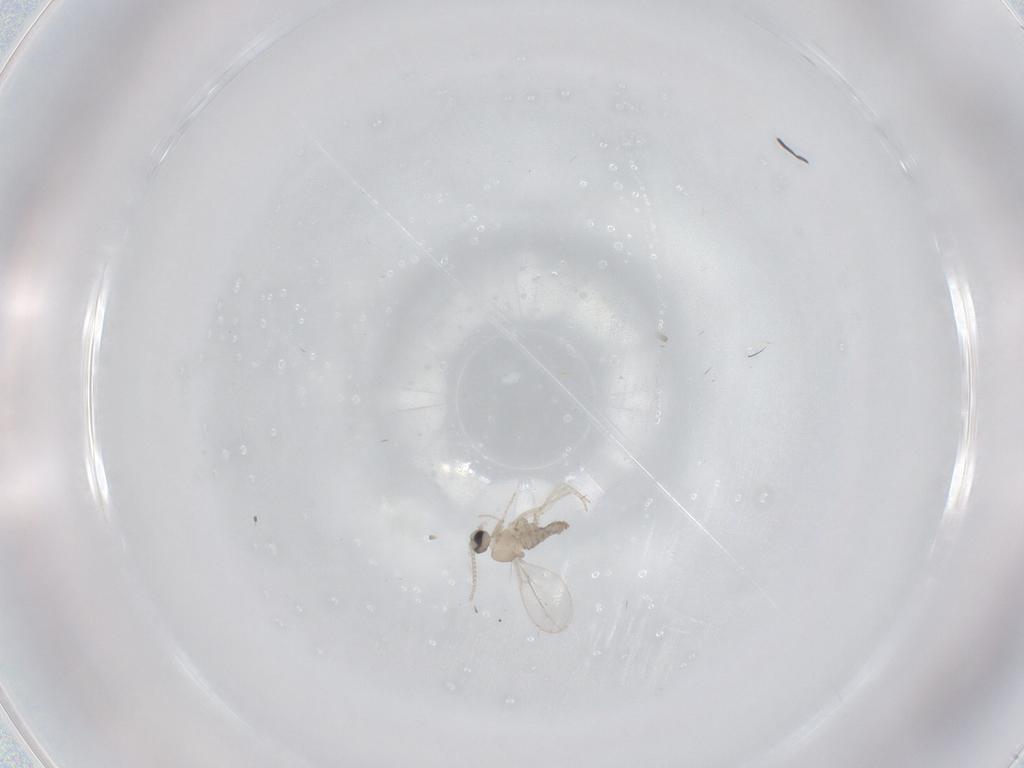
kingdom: Animalia
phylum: Arthropoda
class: Insecta
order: Diptera
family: Cecidomyiidae
